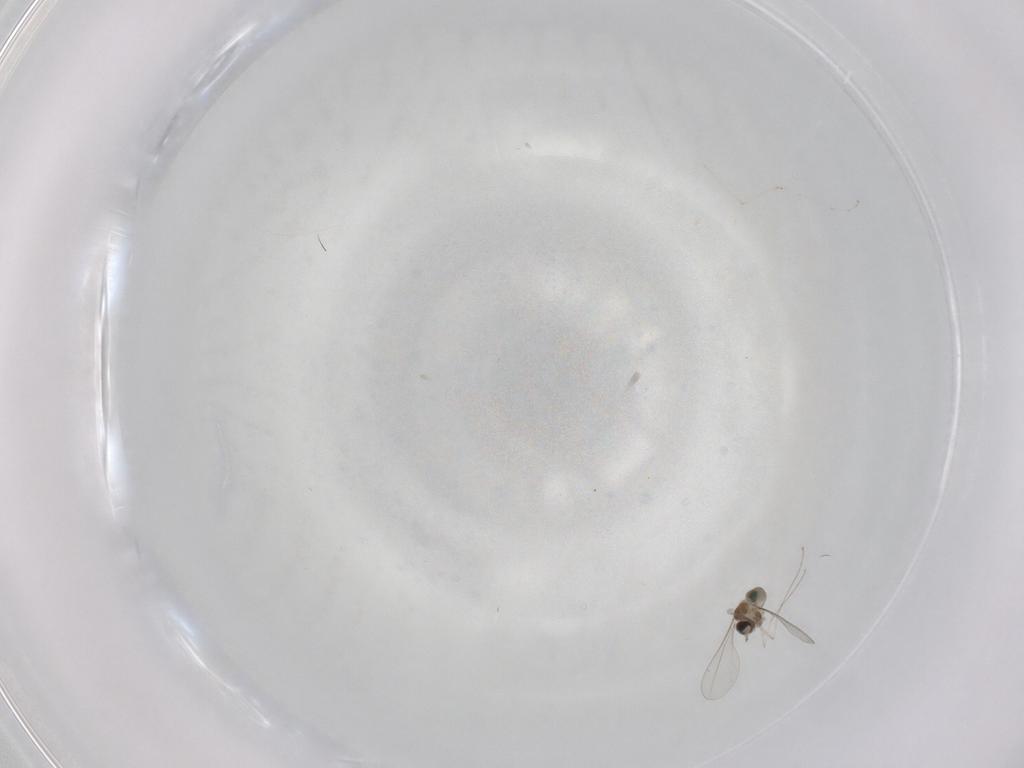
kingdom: Animalia
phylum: Arthropoda
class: Insecta
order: Diptera
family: Cecidomyiidae
